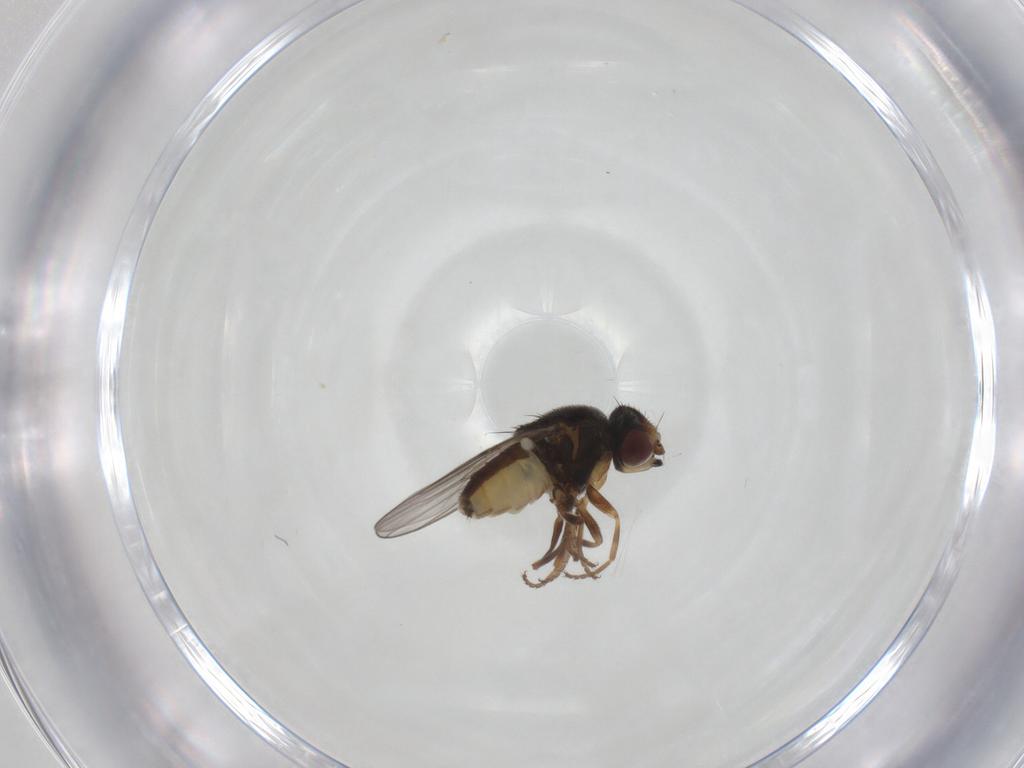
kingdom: Animalia
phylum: Arthropoda
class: Insecta
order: Diptera
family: Chloropidae
